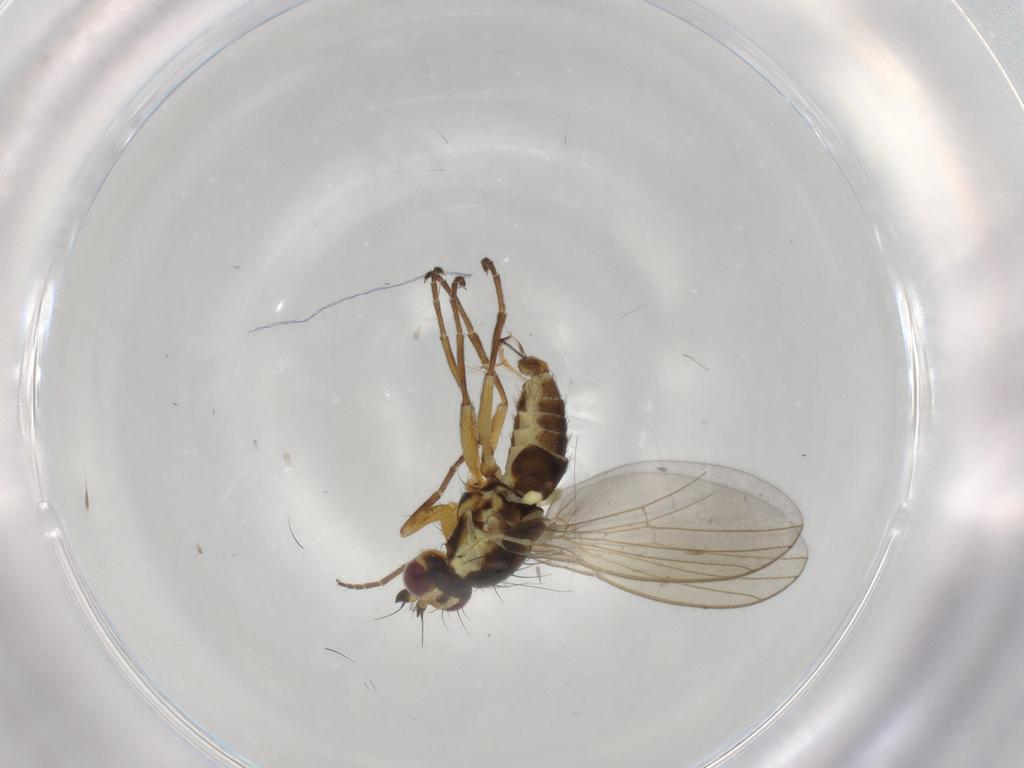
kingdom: Animalia
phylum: Arthropoda
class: Insecta
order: Diptera
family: Agromyzidae
